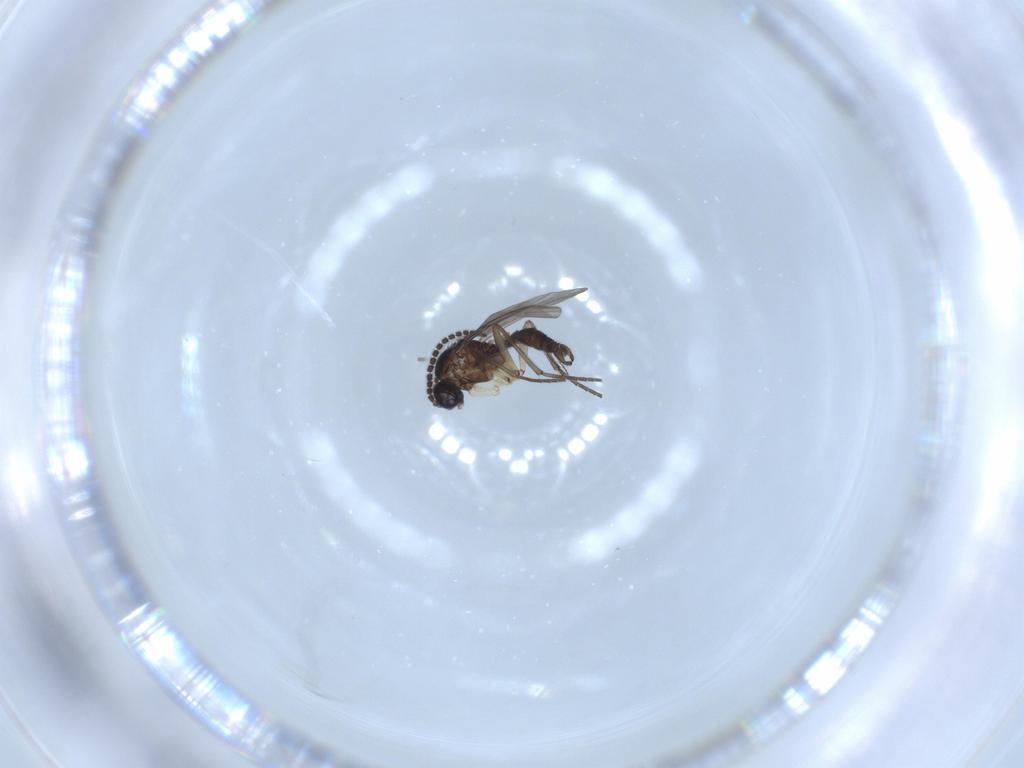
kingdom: Animalia
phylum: Arthropoda
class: Insecta
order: Diptera
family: Sciaridae
